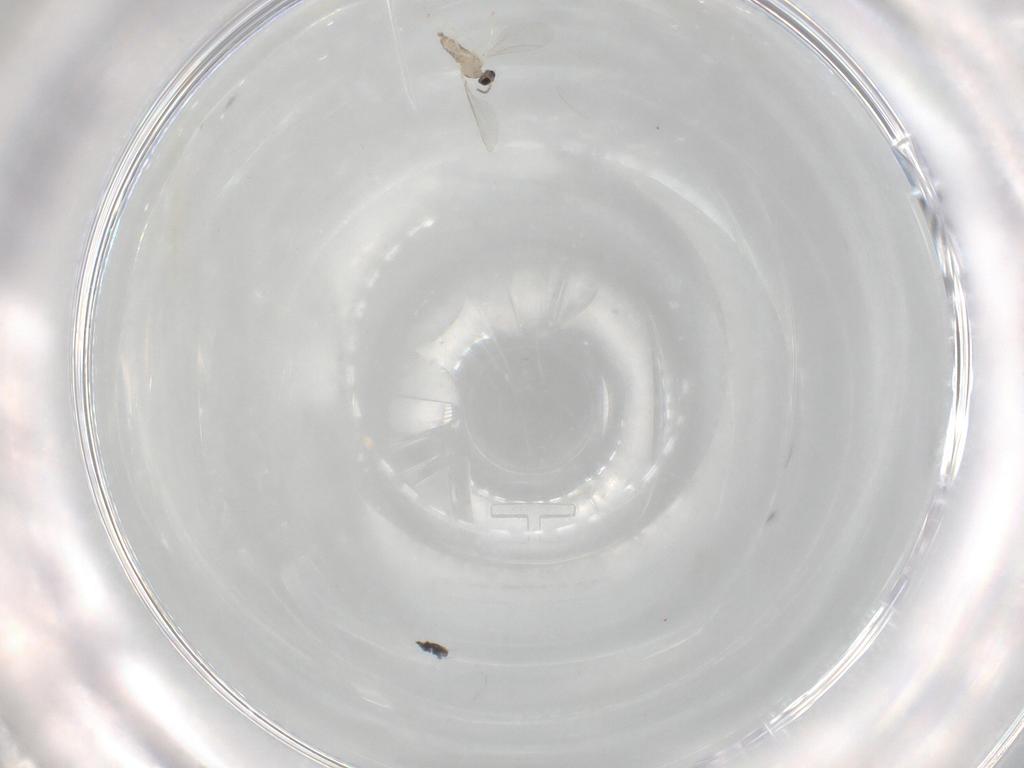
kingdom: Animalia
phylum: Arthropoda
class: Insecta
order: Diptera
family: Cecidomyiidae
